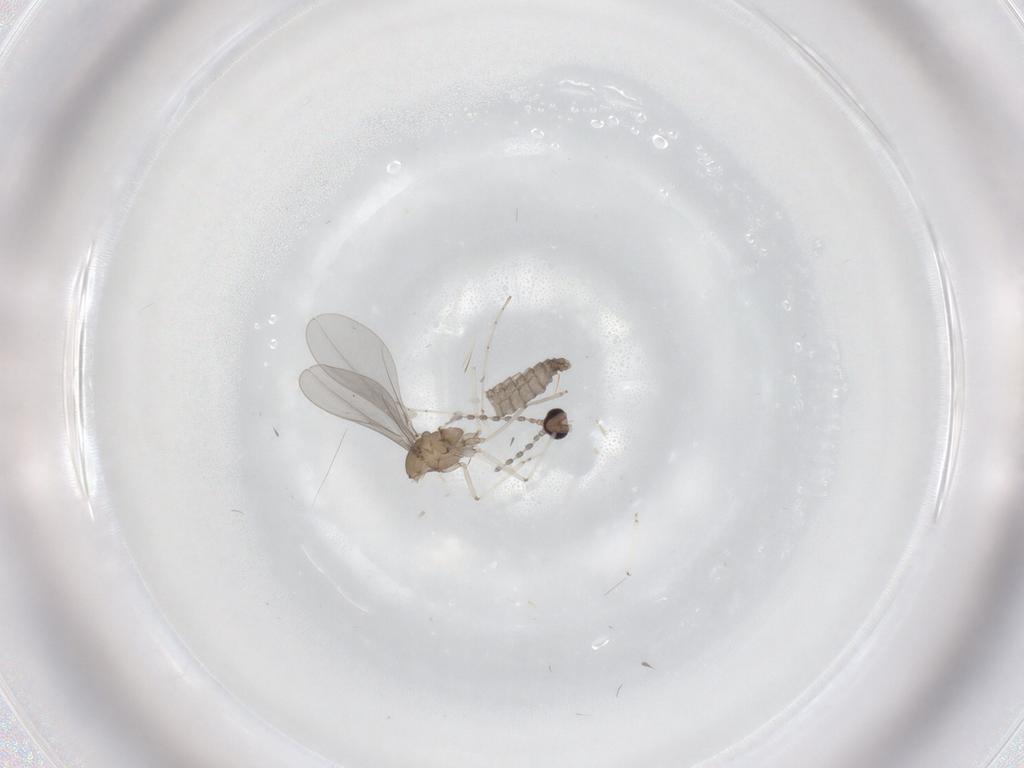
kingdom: Animalia
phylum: Arthropoda
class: Insecta
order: Diptera
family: Cecidomyiidae
